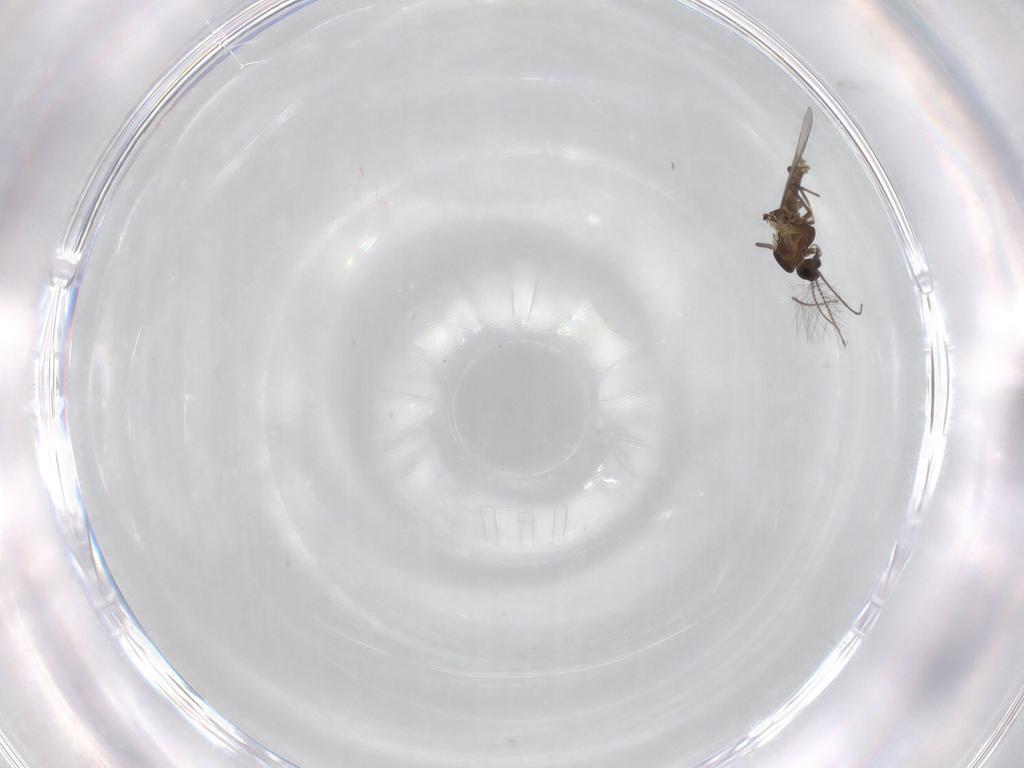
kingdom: Animalia
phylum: Arthropoda
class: Insecta
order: Diptera
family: Chironomidae
